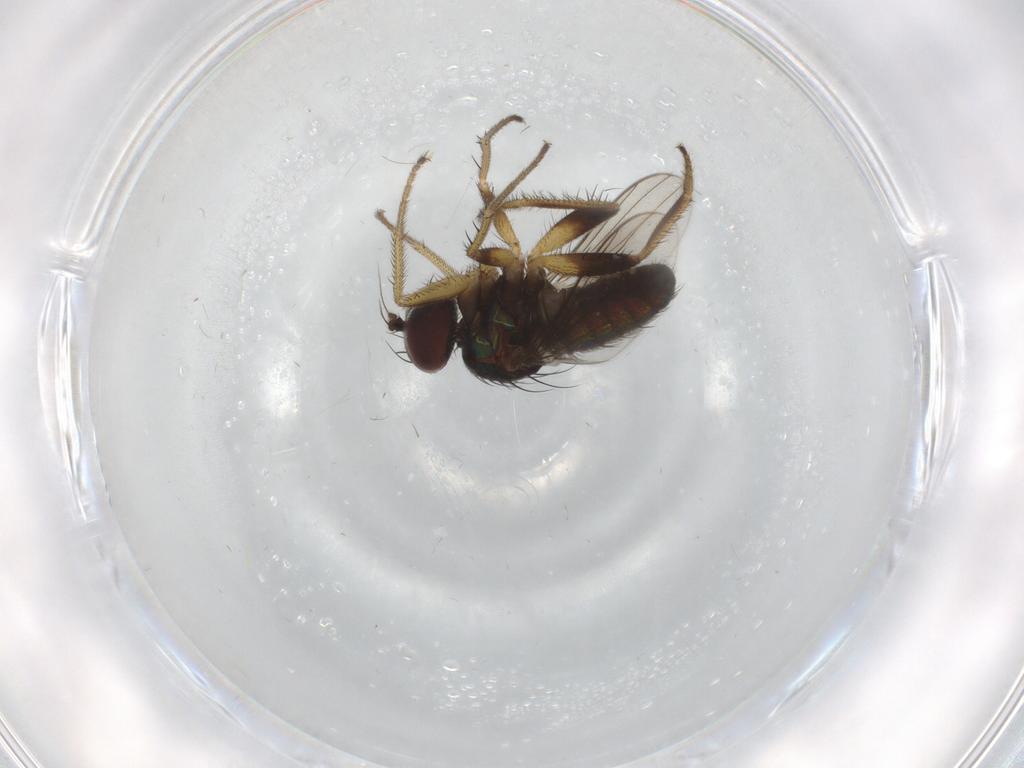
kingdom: Animalia
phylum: Arthropoda
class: Insecta
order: Diptera
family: Dolichopodidae
